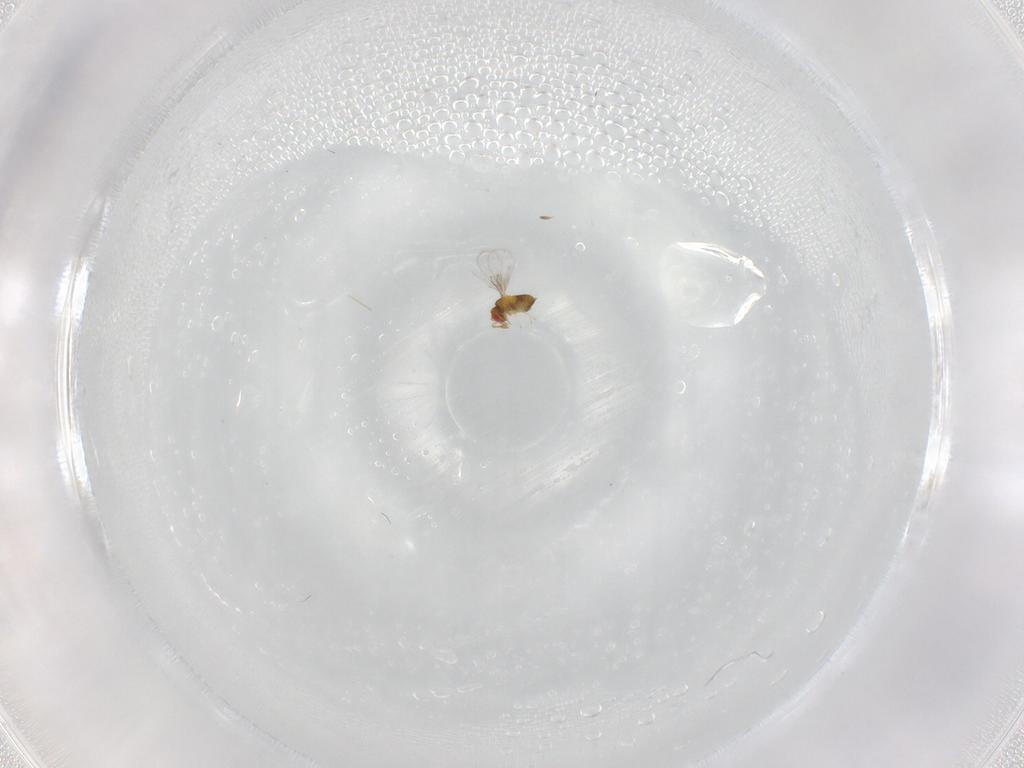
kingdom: Animalia
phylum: Arthropoda
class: Insecta
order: Hymenoptera
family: Trichogrammatidae
